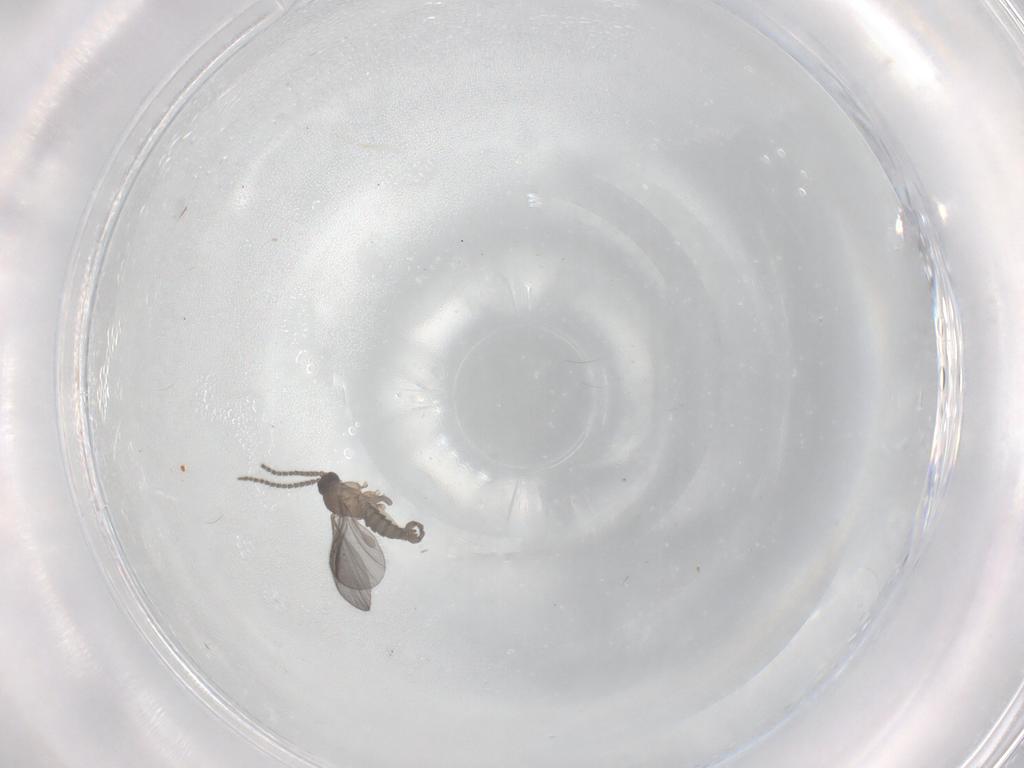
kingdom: Animalia
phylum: Arthropoda
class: Insecta
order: Diptera
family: Sciaridae
